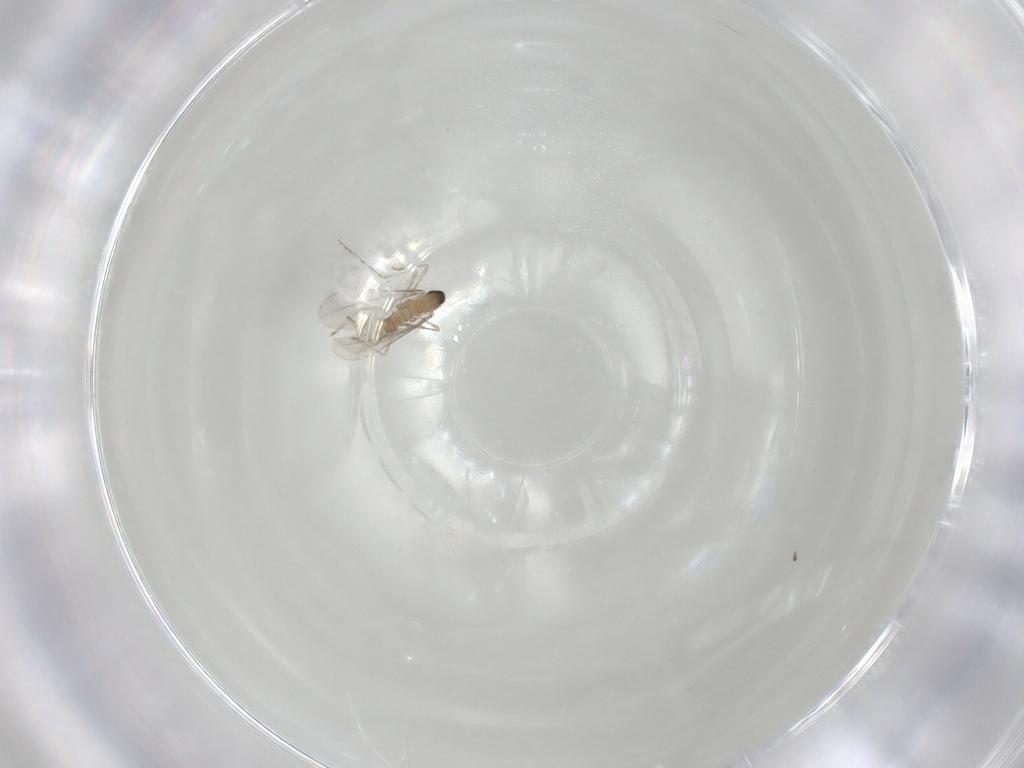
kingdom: Animalia
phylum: Arthropoda
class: Insecta
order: Diptera
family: Cecidomyiidae
